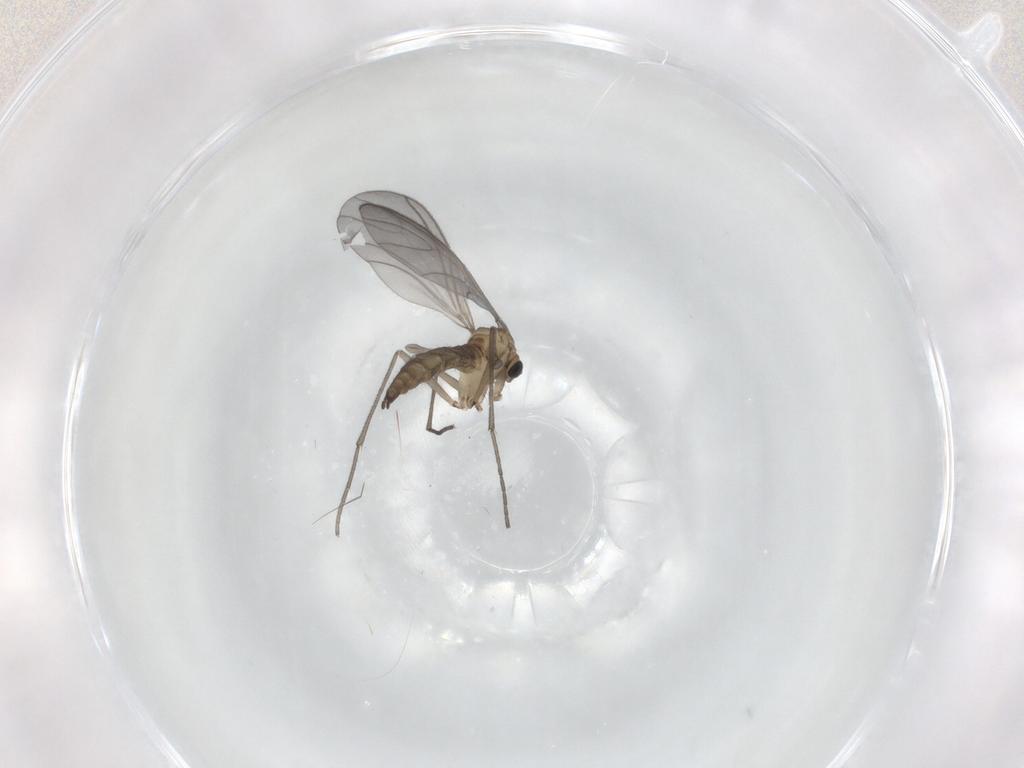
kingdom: Animalia
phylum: Arthropoda
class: Insecta
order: Diptera
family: Sciaridae
